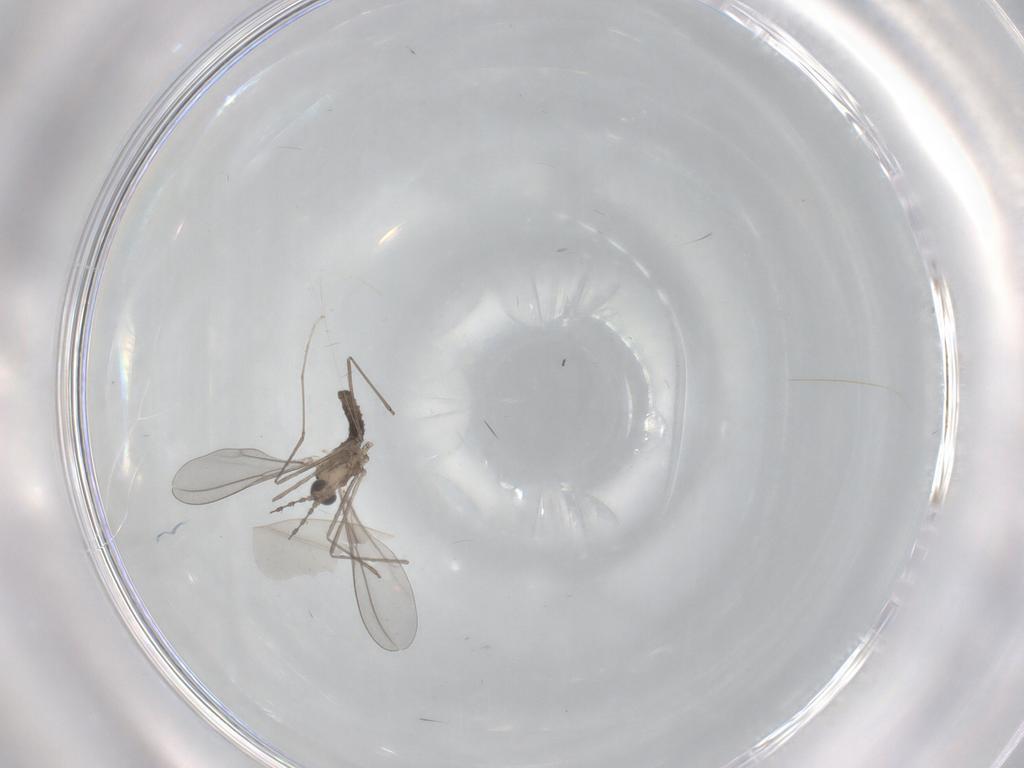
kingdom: Animalia
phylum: Arthropoda
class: Insecta
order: Diptera
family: Cecidomyiidae
